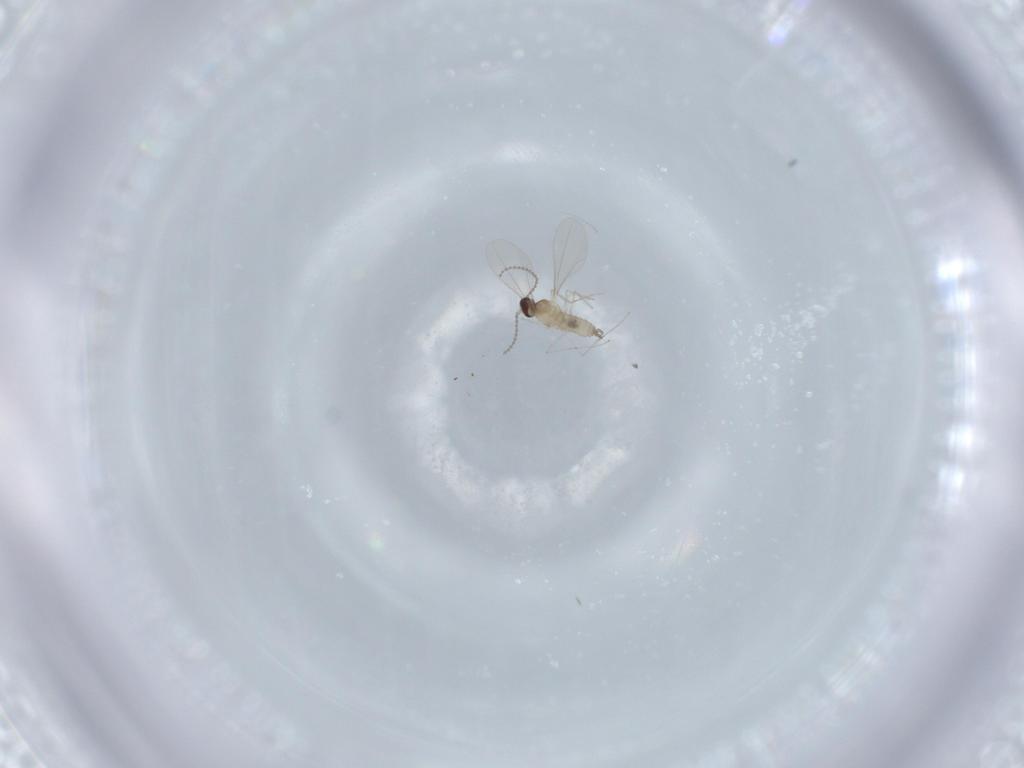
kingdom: Animalia
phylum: Arthropoda
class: Insecta
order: Diptera
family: Cecidomyiidae
